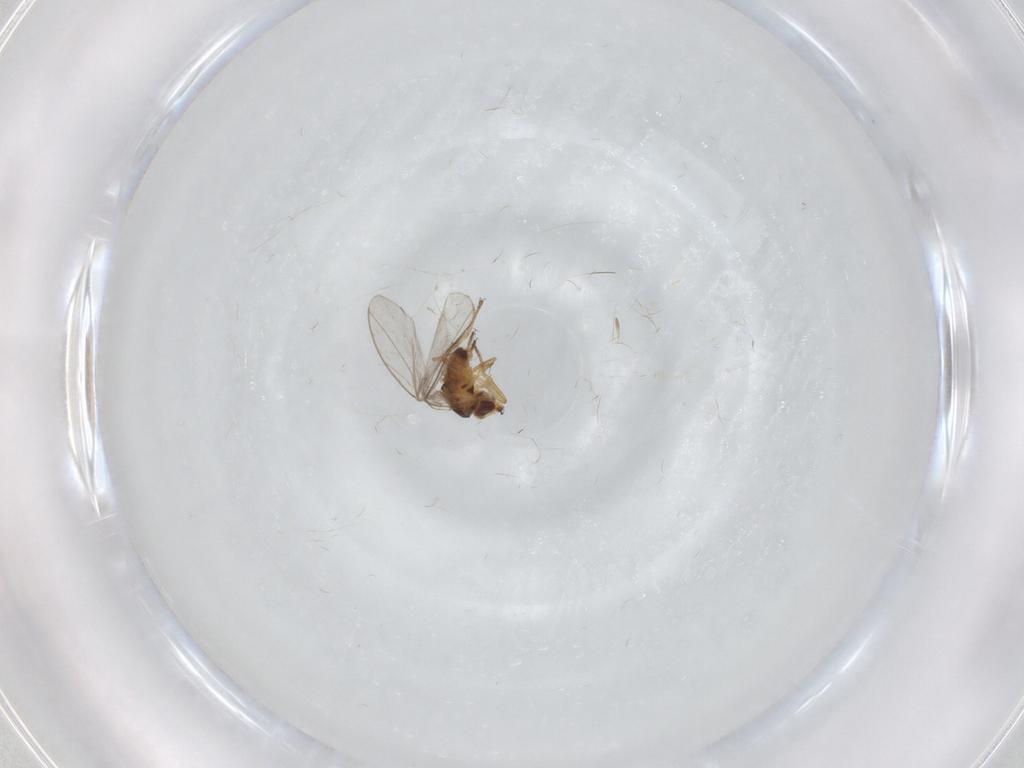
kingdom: Animalia
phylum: Arthropoda
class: Insecta
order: Diptera
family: Chloropidae
